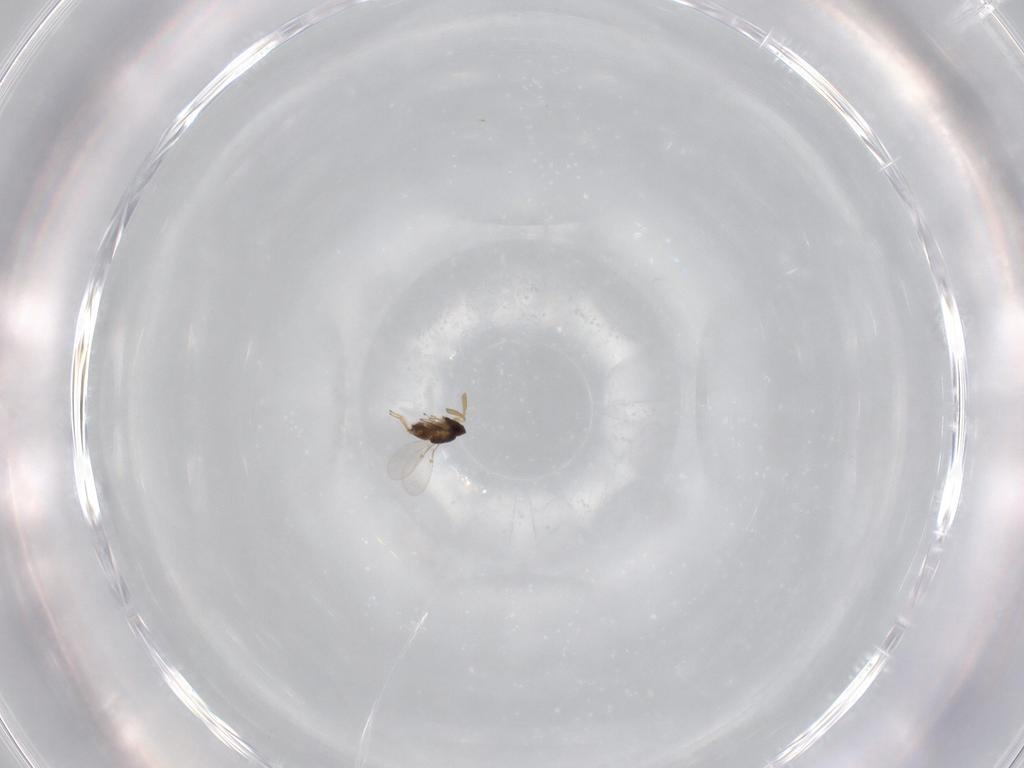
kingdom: Animalia
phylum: Arthropoda
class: Insecta
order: Hymenoptera
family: Encyrtidae
